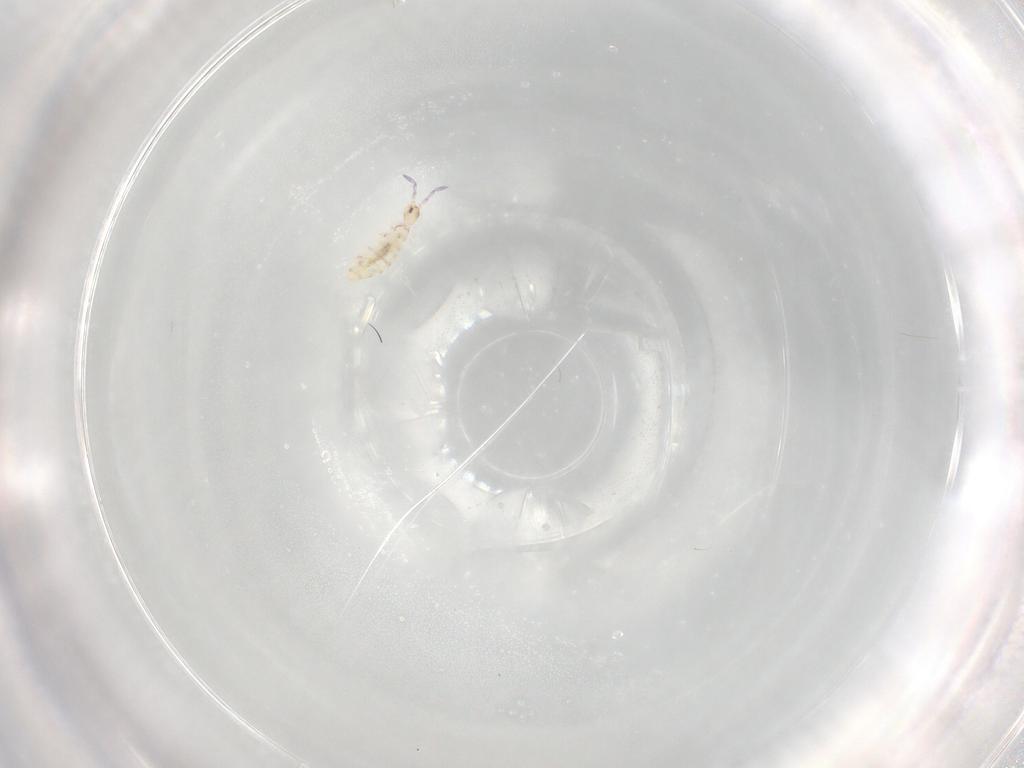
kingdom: Animalia
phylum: Arthropoda
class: Collembola
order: Entomobryomorpha
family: Entomobryidae
